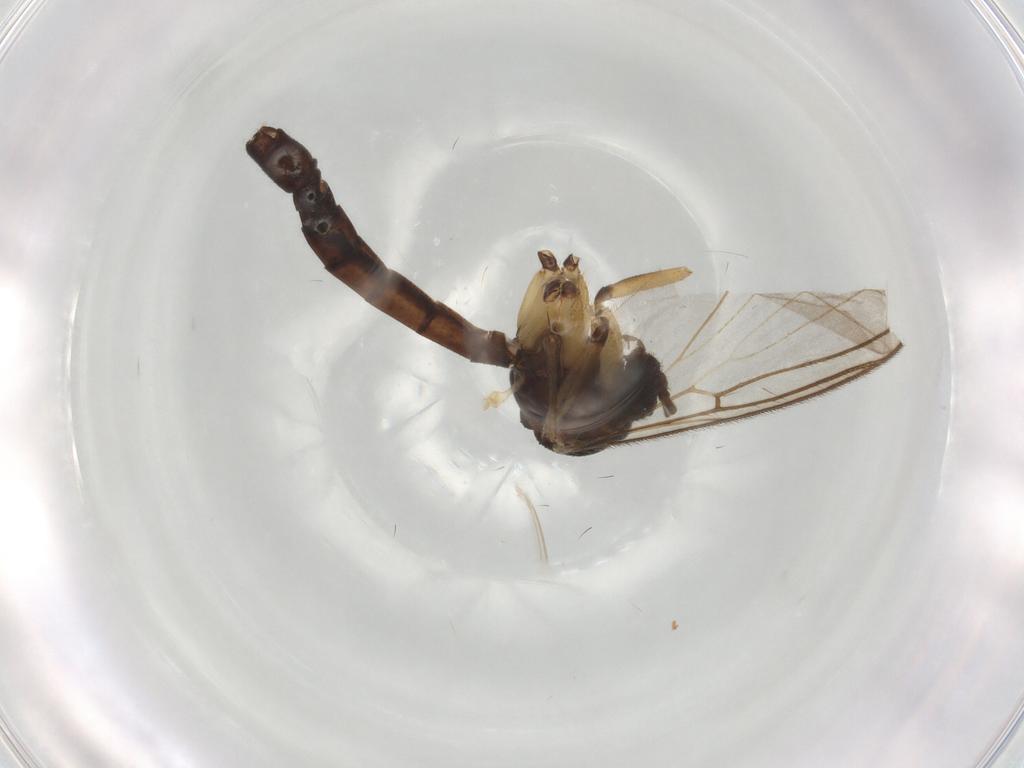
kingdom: Animalia
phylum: Arthropoda
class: Insecta
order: Diptera
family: Mycetophilidae
